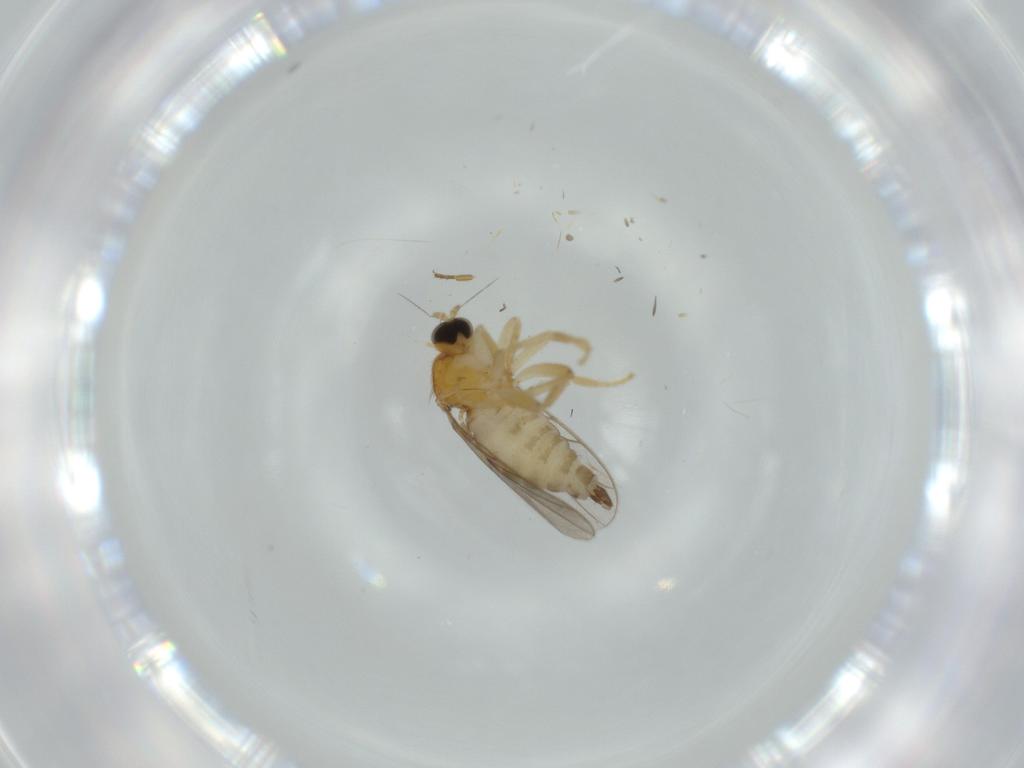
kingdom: Animalia
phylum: Arthropoda
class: Insecta
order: Diptera
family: Hybotidae
